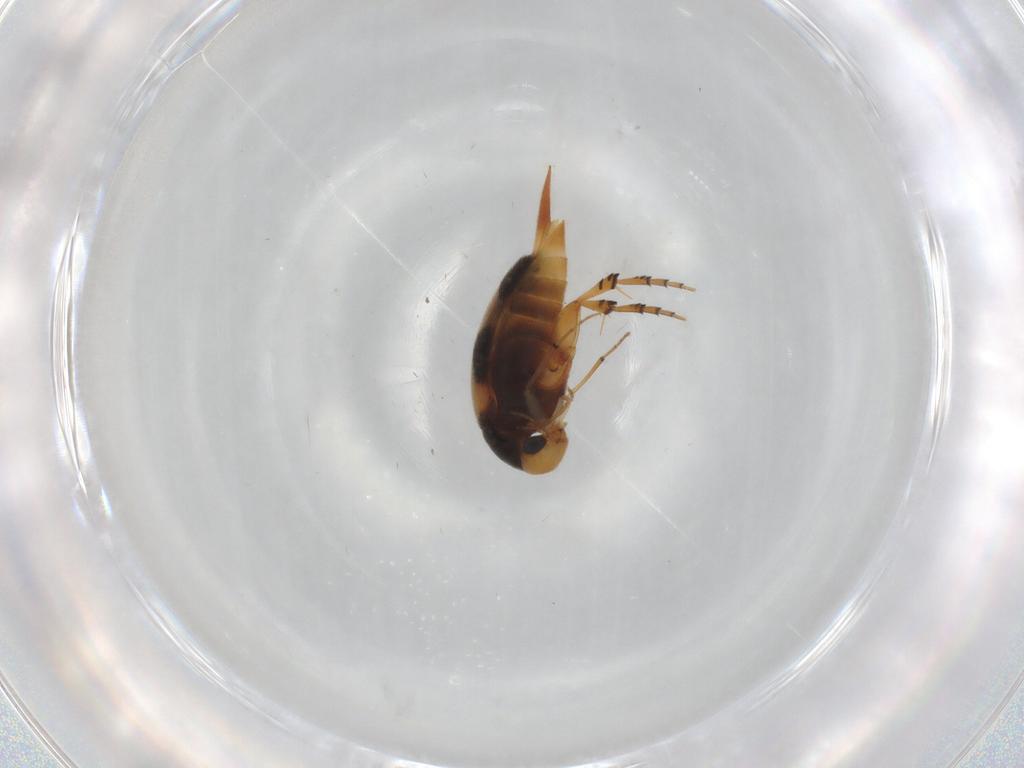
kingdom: Animalia
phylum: Arthropoda
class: Insecta
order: Coleoptera
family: Mordellidae
